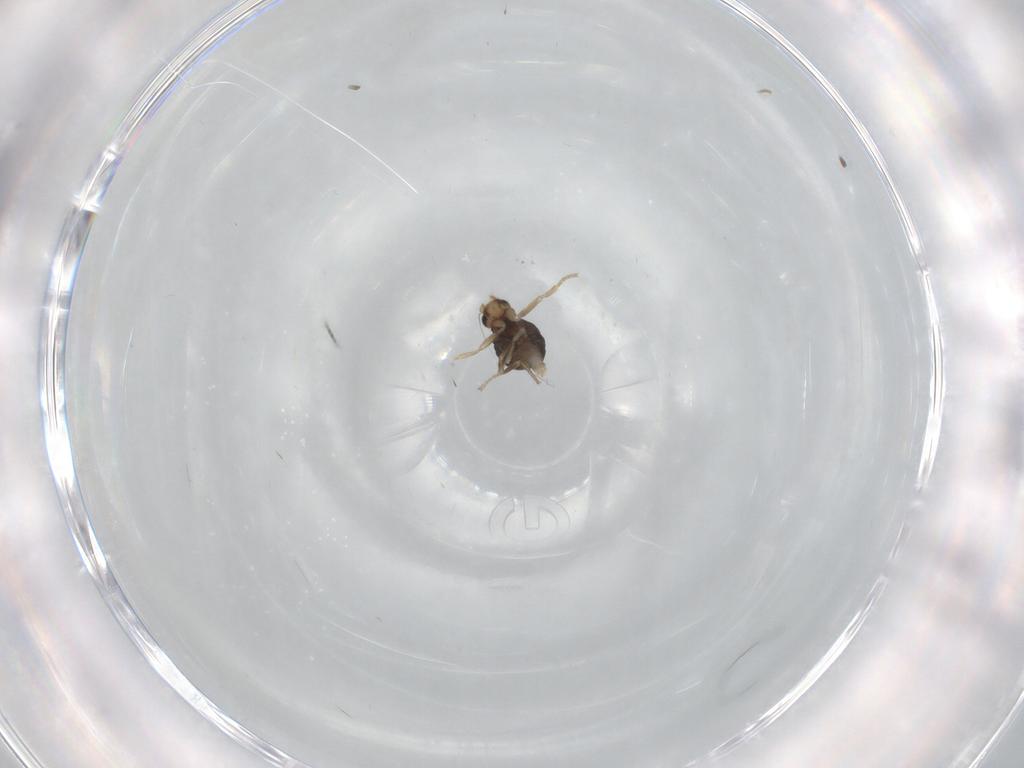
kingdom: Animalia
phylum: Arthropoda
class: Insecta
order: Diptera
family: Phoridae
